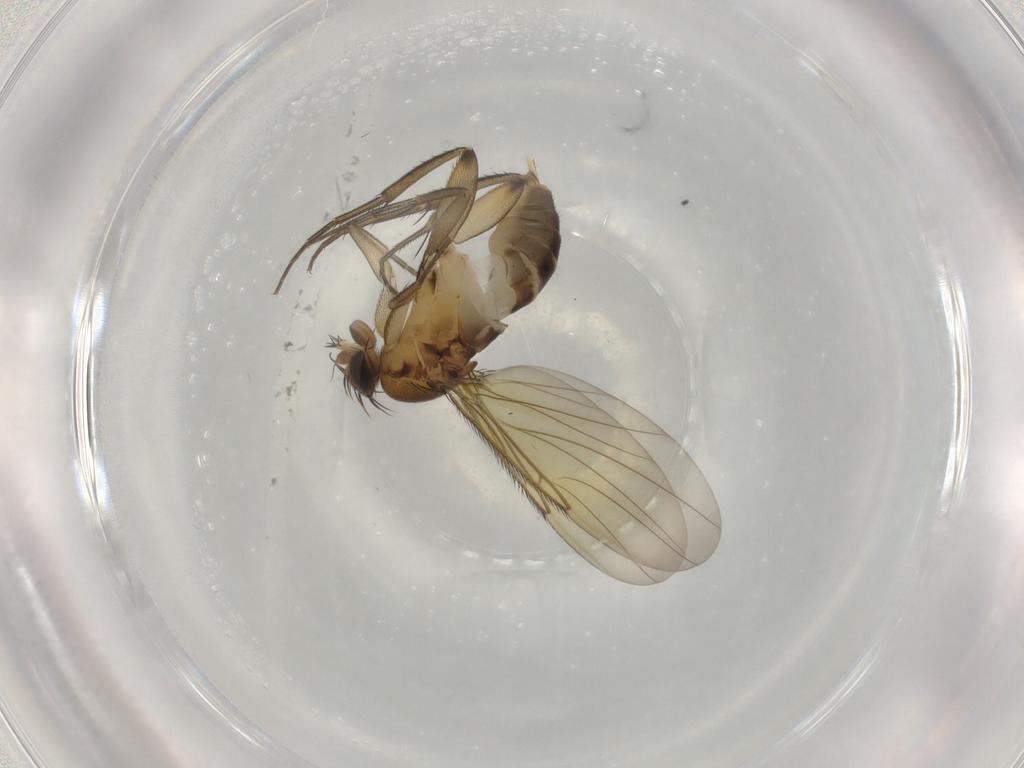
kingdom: Animalia
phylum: Arthropoda
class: Insecta
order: Diptera
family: Phoridae
